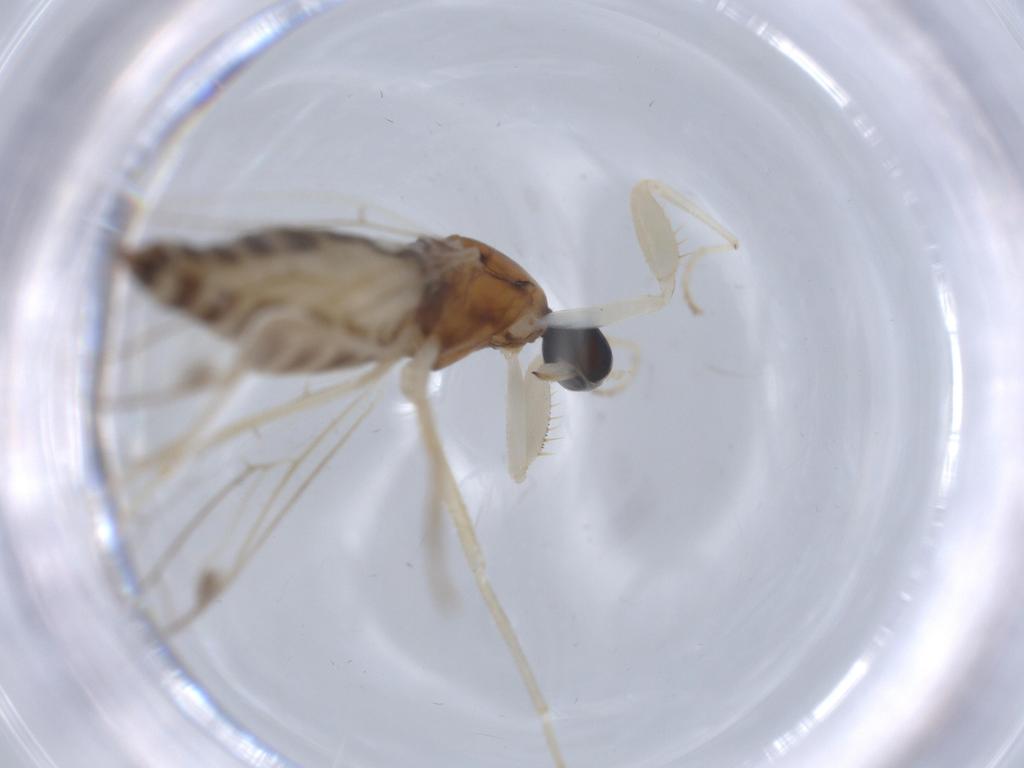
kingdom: Animalia
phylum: Arthropoda
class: Insecta
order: Diptera
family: Empididae
